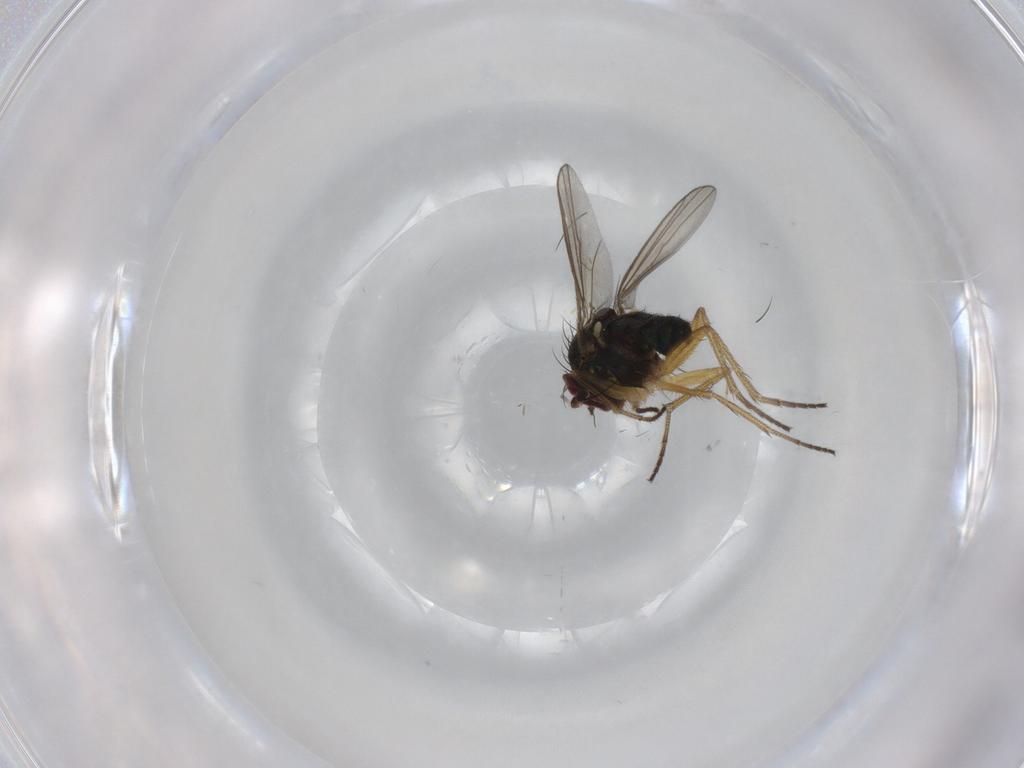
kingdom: Animalia
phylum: Arthropoda
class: Insecta
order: Diptera
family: Dolichopodidae
